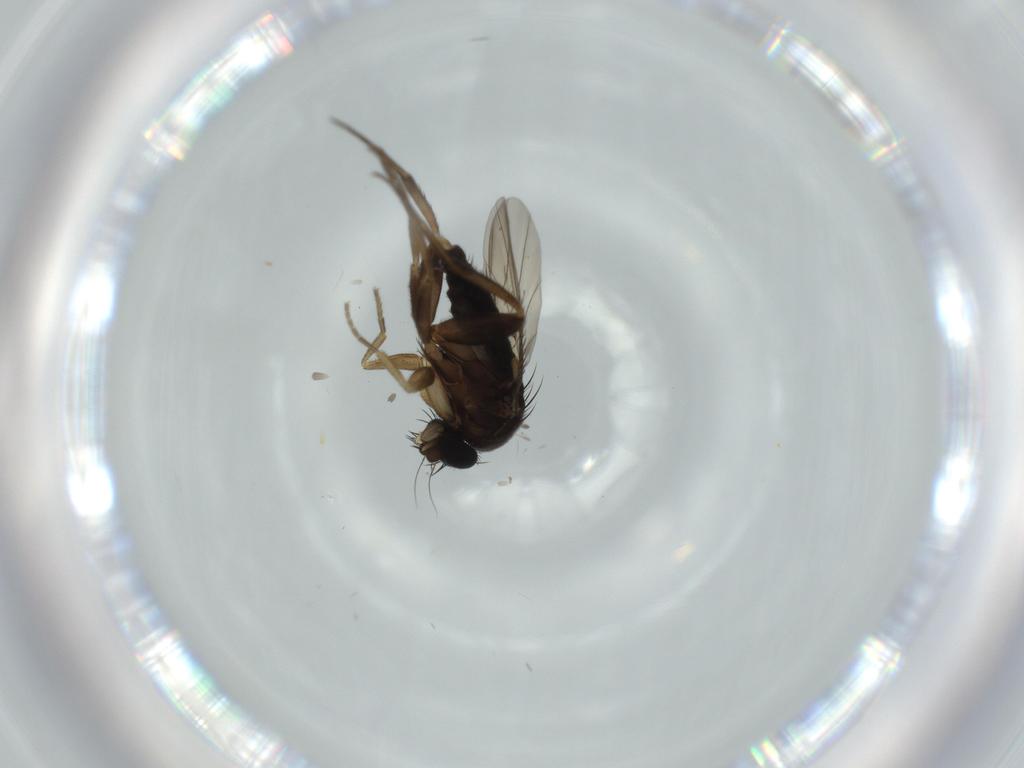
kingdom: Animalia
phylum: Arthropoda
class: Insecta
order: Diptera
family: Phoridae
